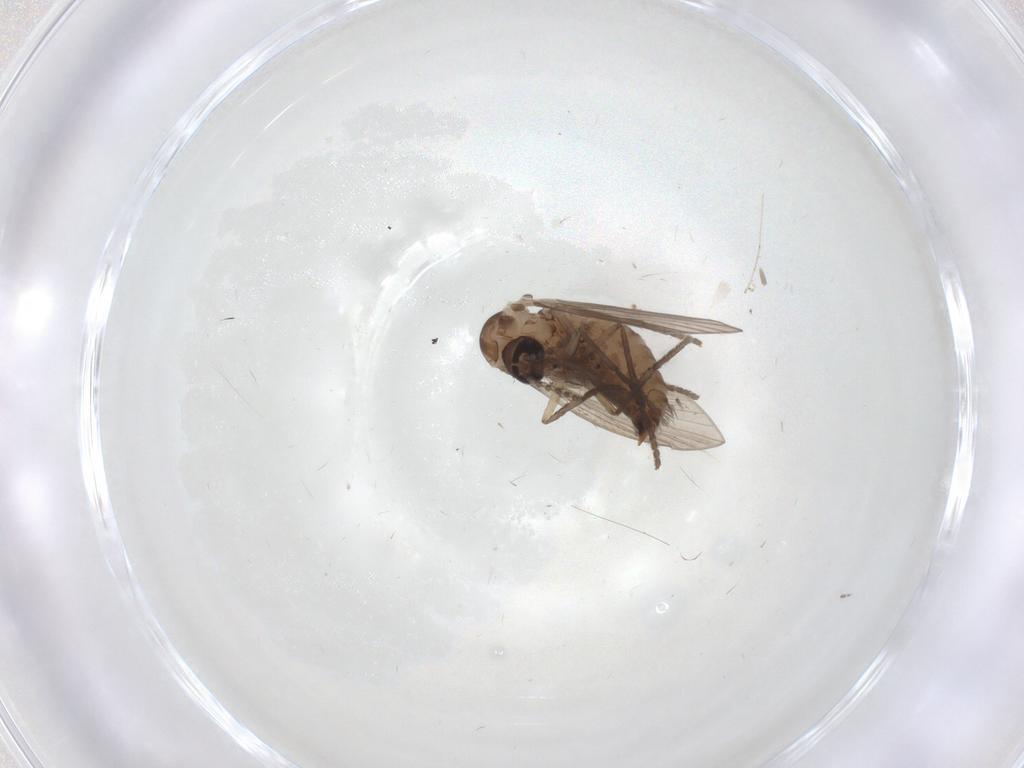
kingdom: Animalia
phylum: Arthropoda
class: Insecta
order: Diptera
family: Psychodidae
